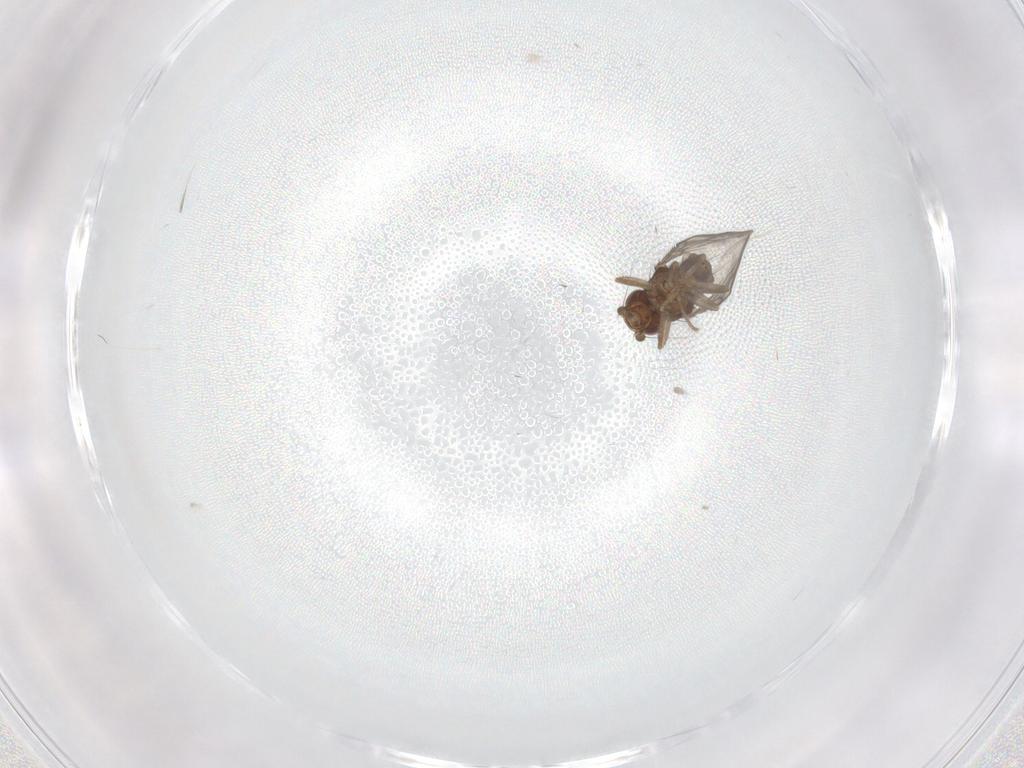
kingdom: Animalia
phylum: Arthropoda
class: Insecta
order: Diptera
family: Sphaeroceridae
